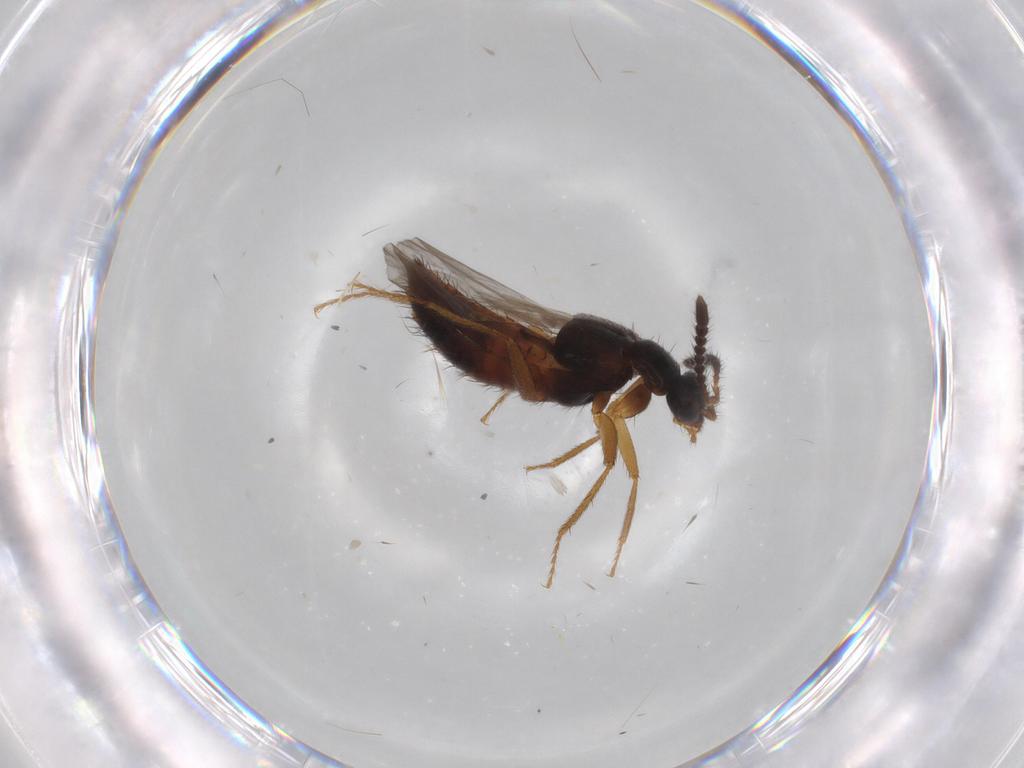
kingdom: Animalia
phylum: Arthropoda
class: Insecta
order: Coleoptera
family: Staphylinidae
